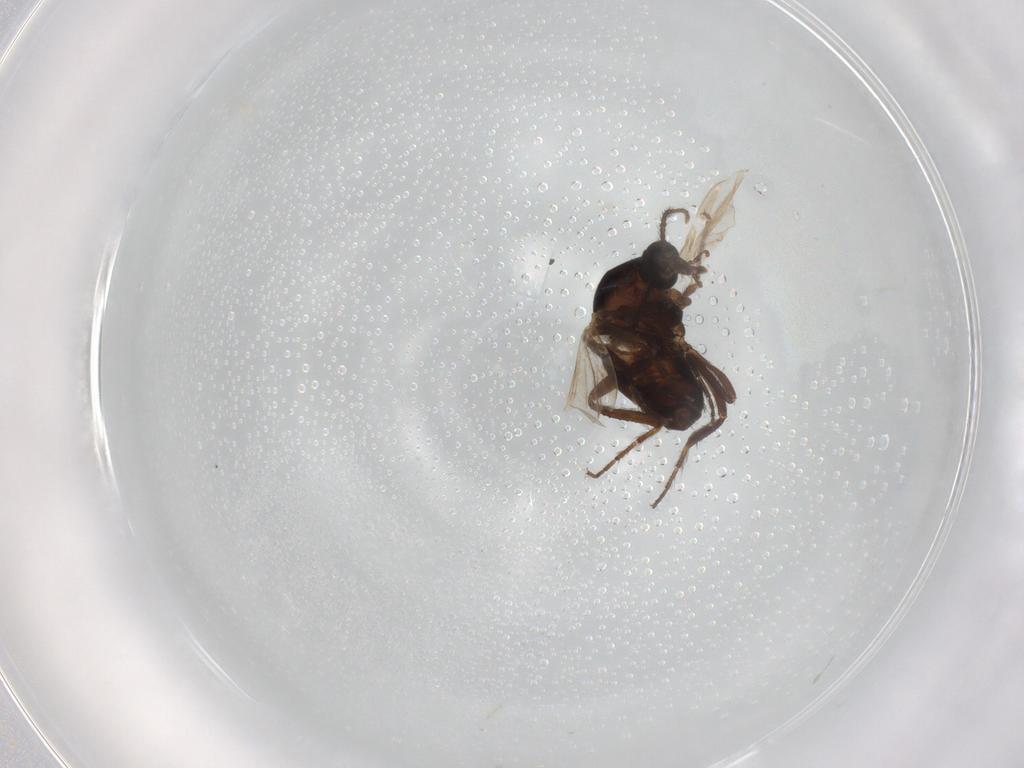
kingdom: Animalia
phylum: Arthropoda
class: Insecta
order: Diptera
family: Ceratopogonidae
